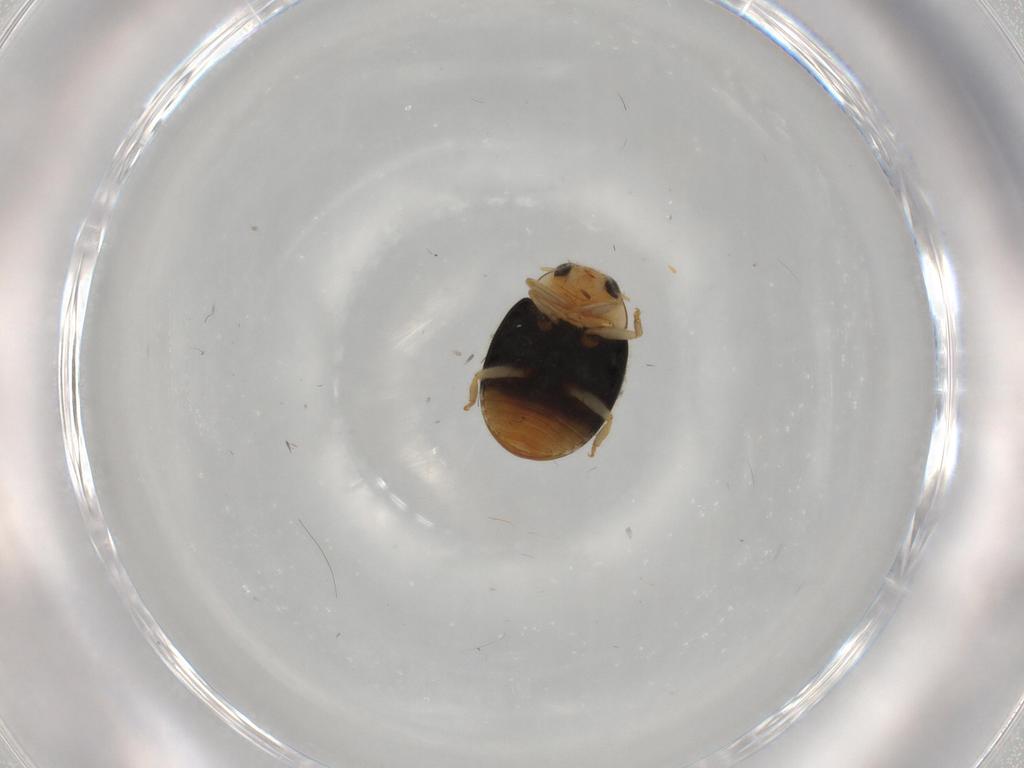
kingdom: Animalia
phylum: Arthropoda
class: Insecta
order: Coleoptera
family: Coccinellidae
